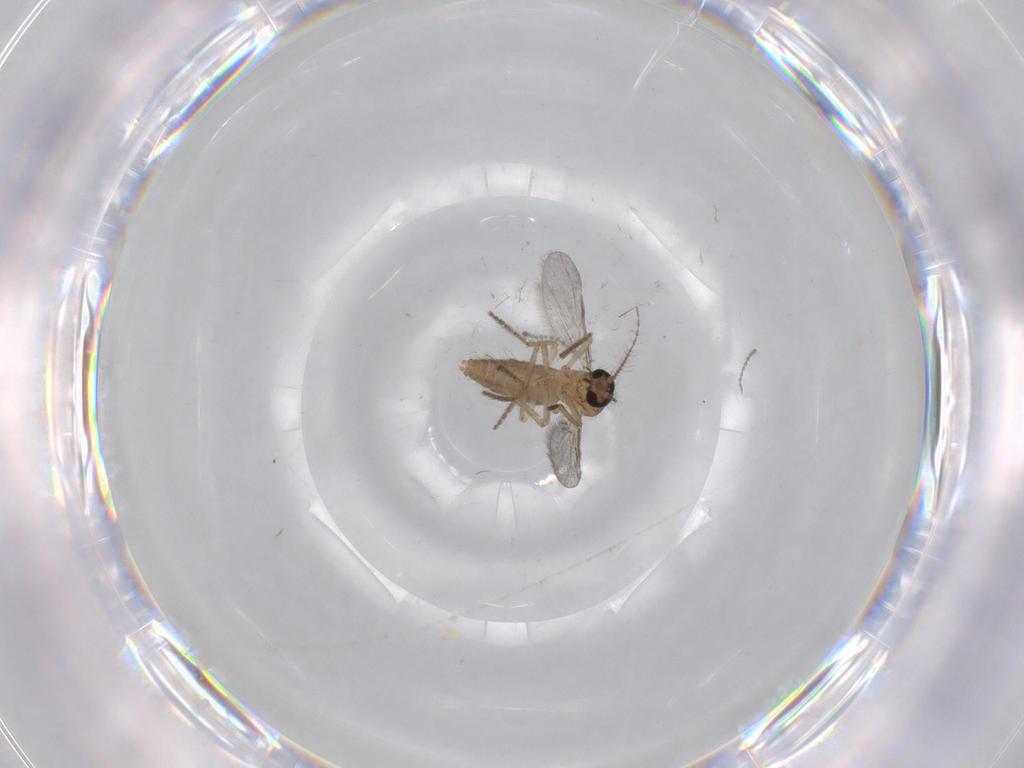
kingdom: Animalia
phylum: Arthropoda
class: Insecta
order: Diptera
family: Ceratopogonidae
